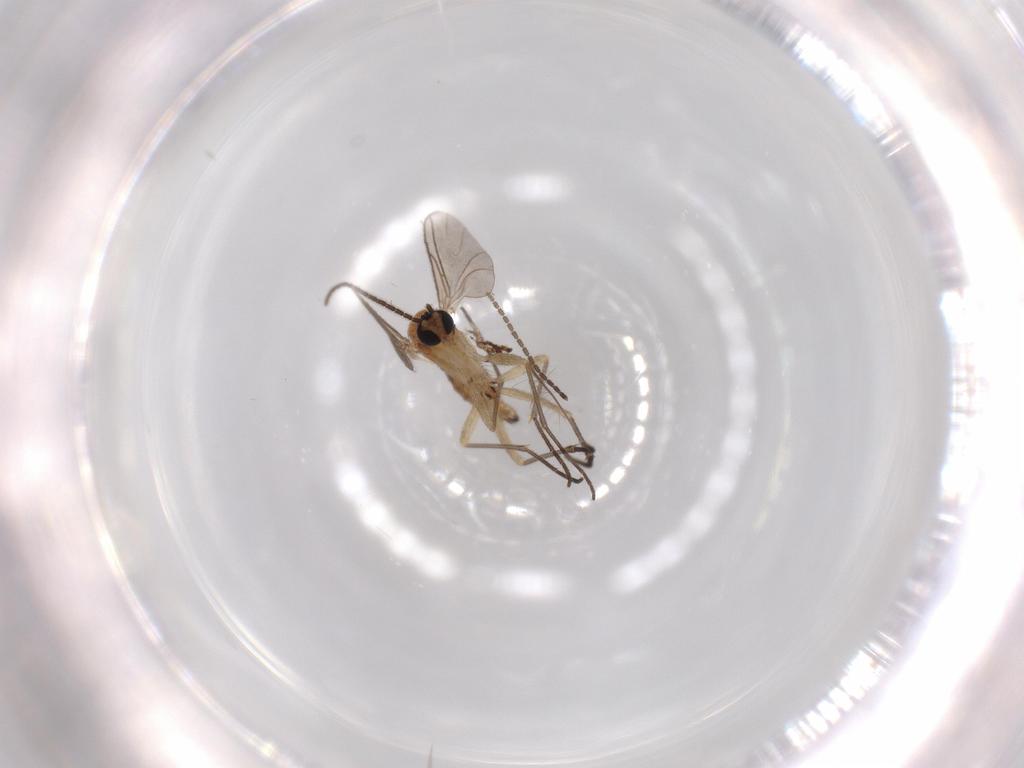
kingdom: Animalia
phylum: Arthropoda
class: Insecta
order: Diptera
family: Sciaridae
